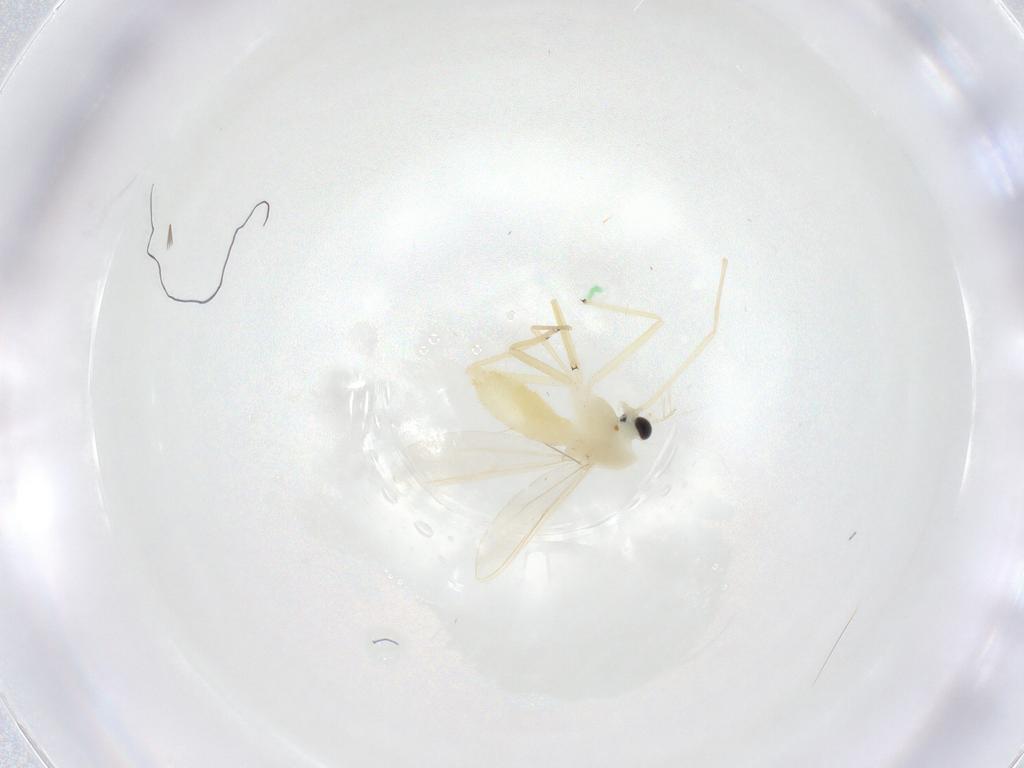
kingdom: Animalia
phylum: Arthropoda
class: Insecta
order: Diptera
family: Chironomidae
